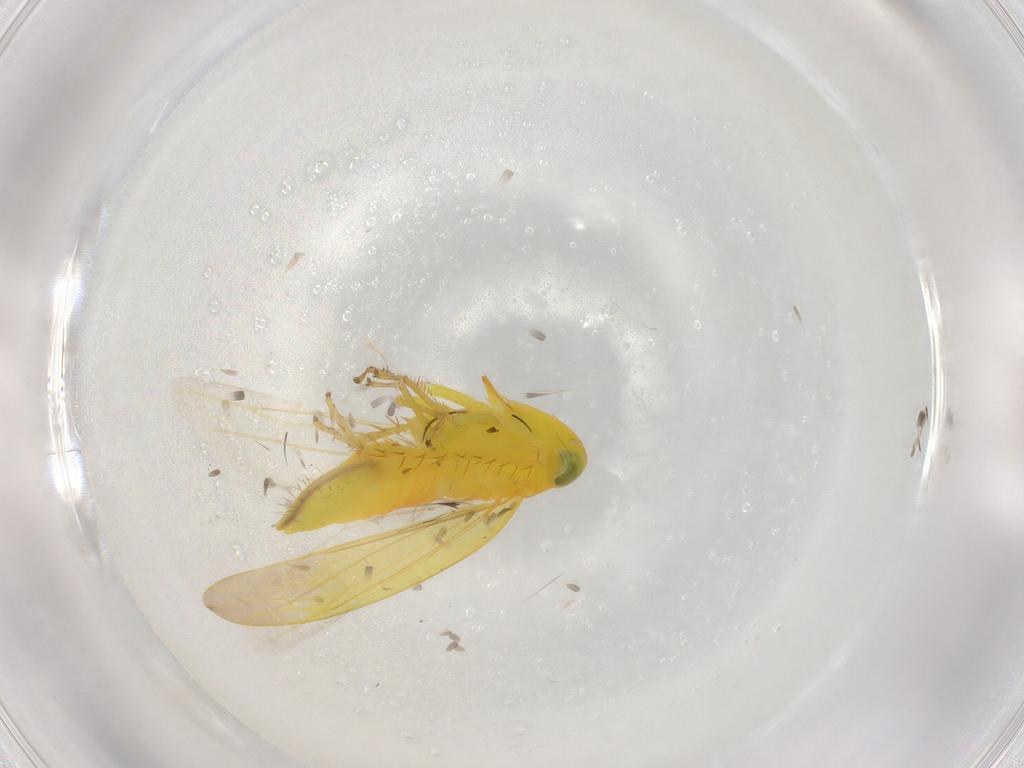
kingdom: Animalia
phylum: Arthropoda
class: Insecta
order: Hemiptera
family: Cicadellidae
